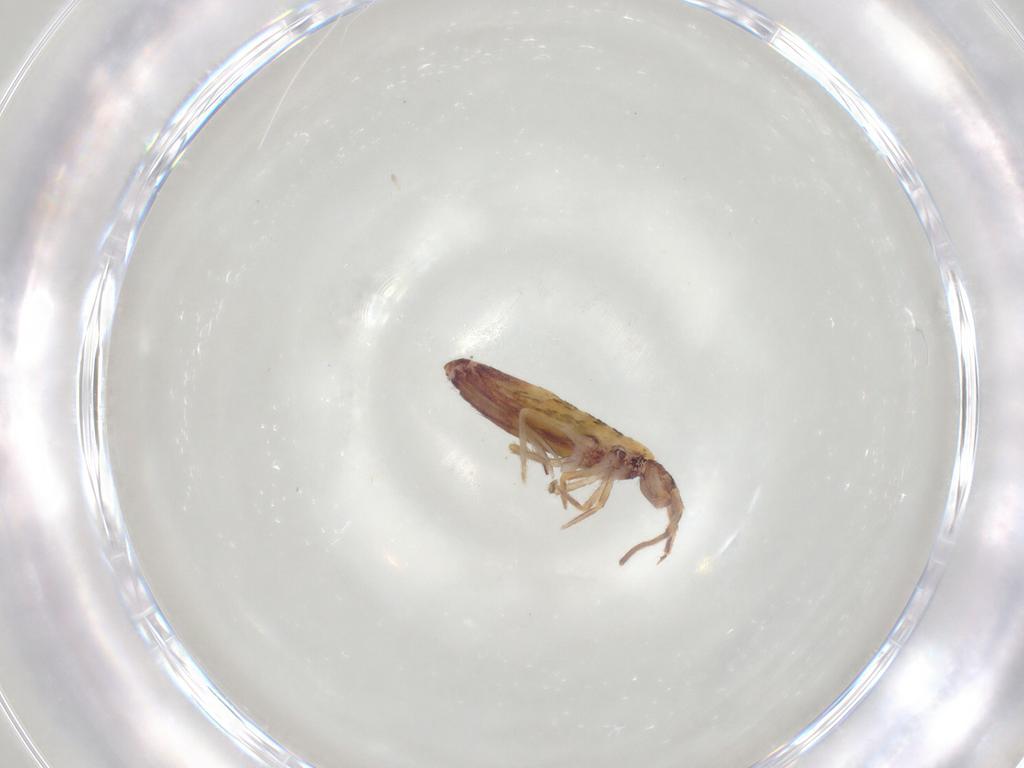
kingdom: Animalia
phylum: Arthropoda
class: Collembola
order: Entomobryomorpha
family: Entomobryidae
